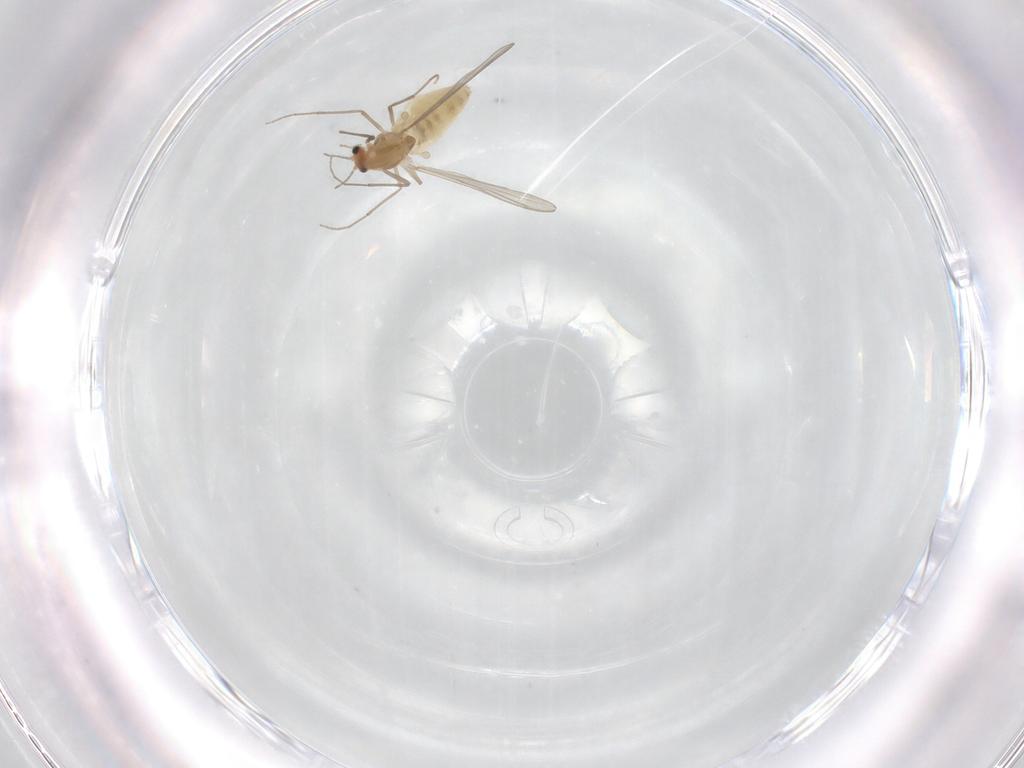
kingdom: Animalia
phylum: Arthropoda
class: Insecta
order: Diptera
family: Chironomidae
